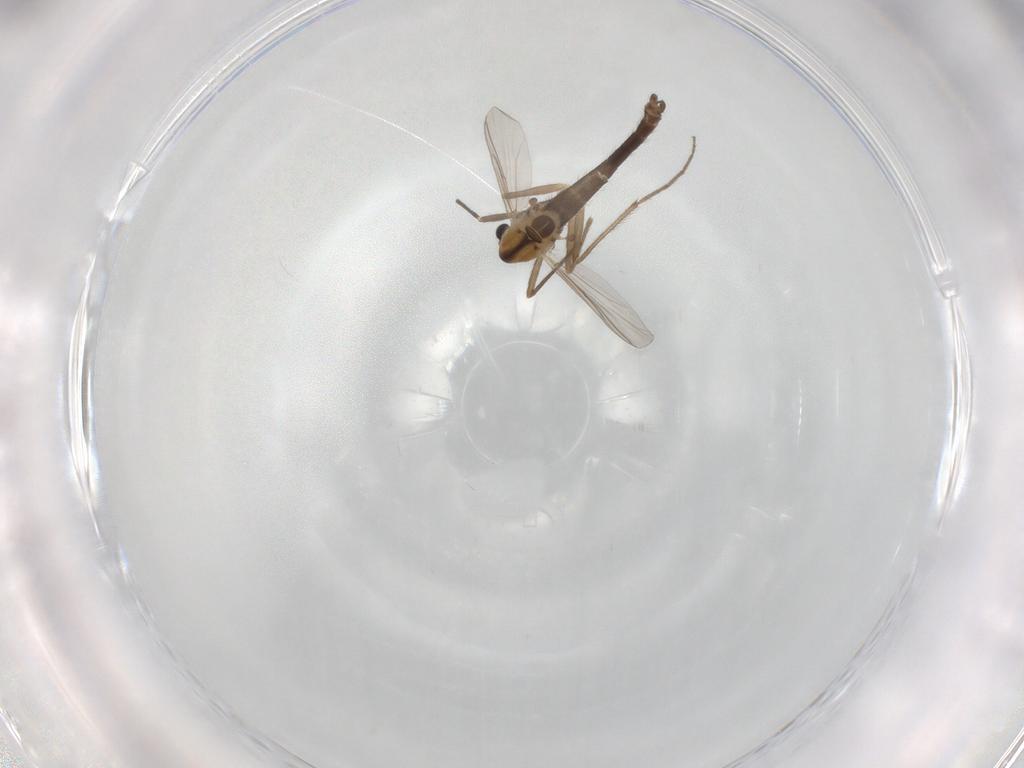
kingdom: Animalia
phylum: Arthropoda
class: Insecta
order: Diptera
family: Chironomidae
